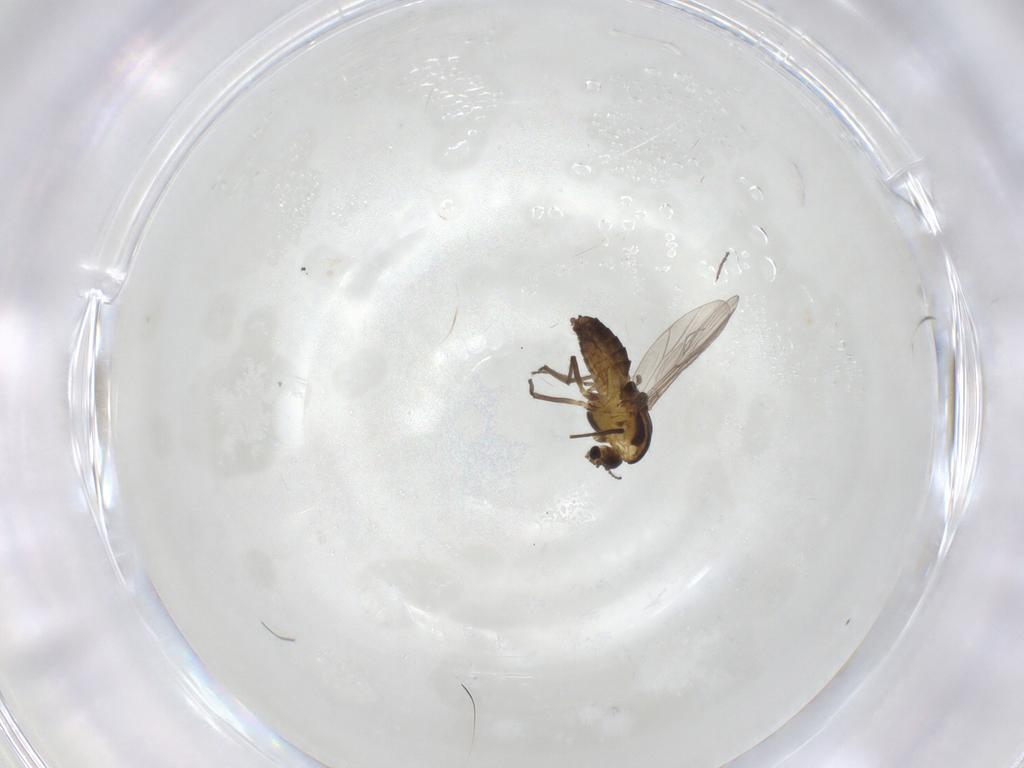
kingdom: Animalia
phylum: Arthropoda
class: Insecta
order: Diptera
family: Chironomidae
